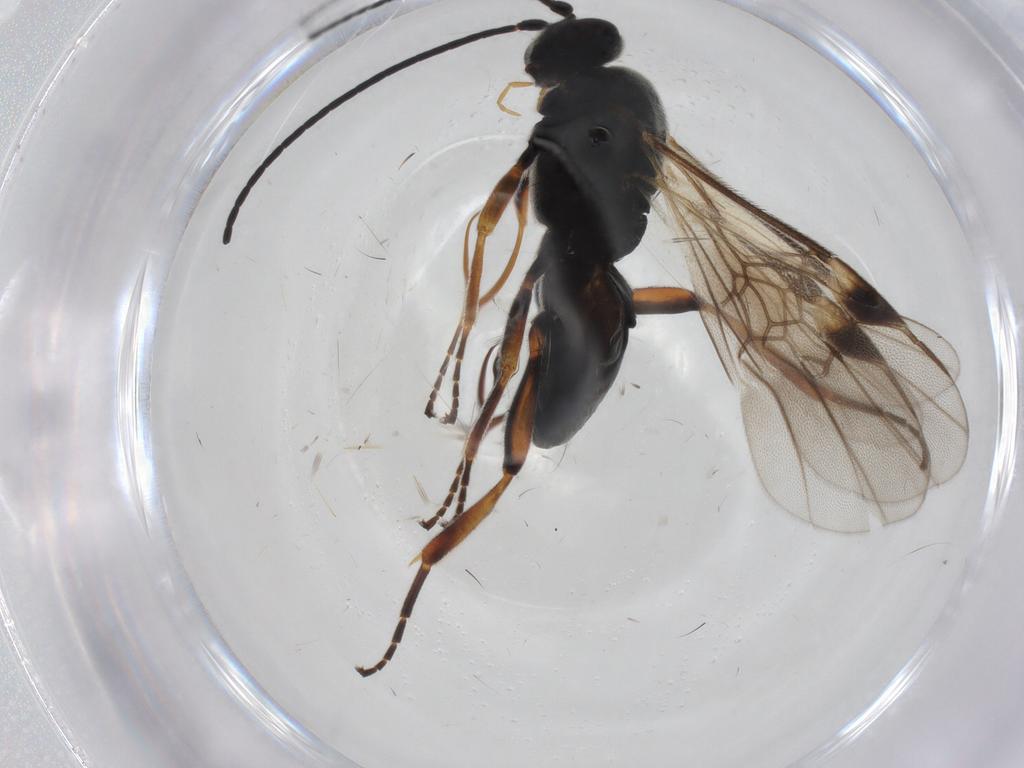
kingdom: Animalia
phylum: Arthropoda
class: Insecta
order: Hymenoptera
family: Braconidae
